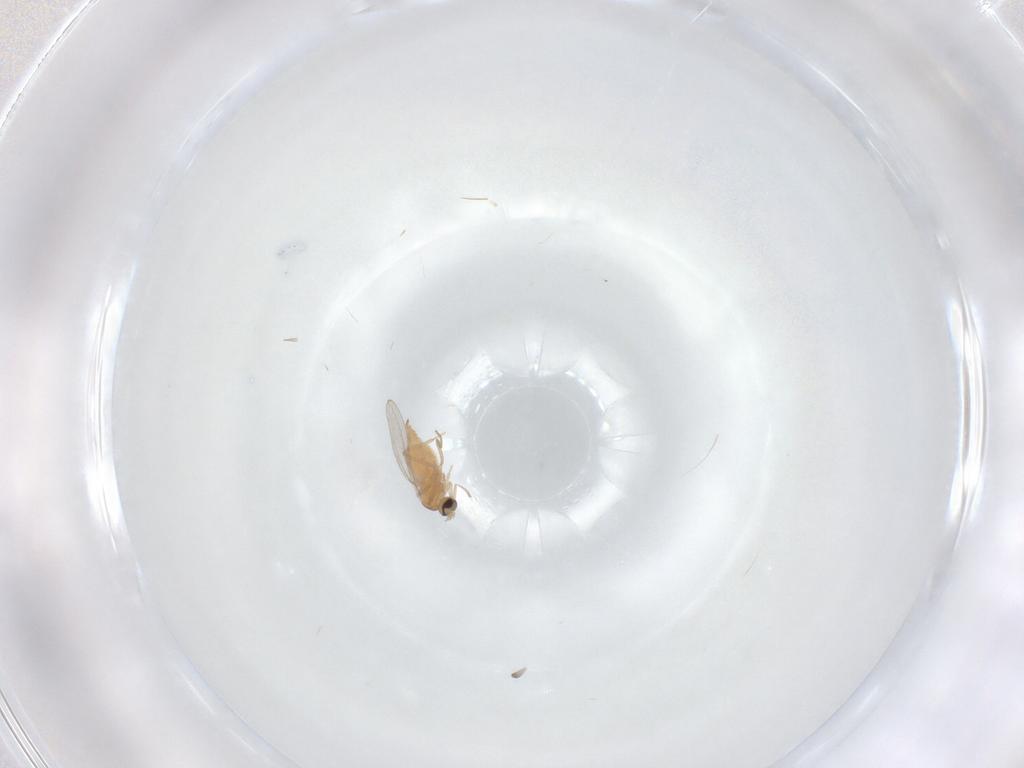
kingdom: Animalia
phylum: Arthropoda
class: Insecta
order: Diptera
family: Cecidomyiidae
